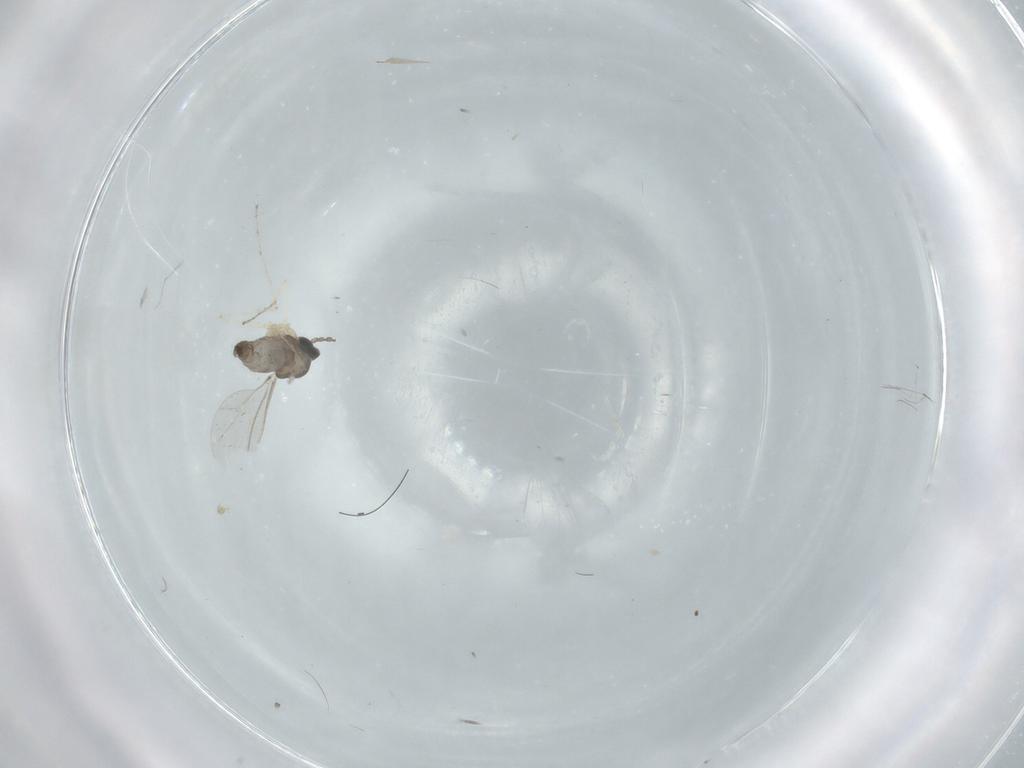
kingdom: Animalia
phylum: Arthropoda
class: Insecta
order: Diptera
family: Cecidomyiidae
